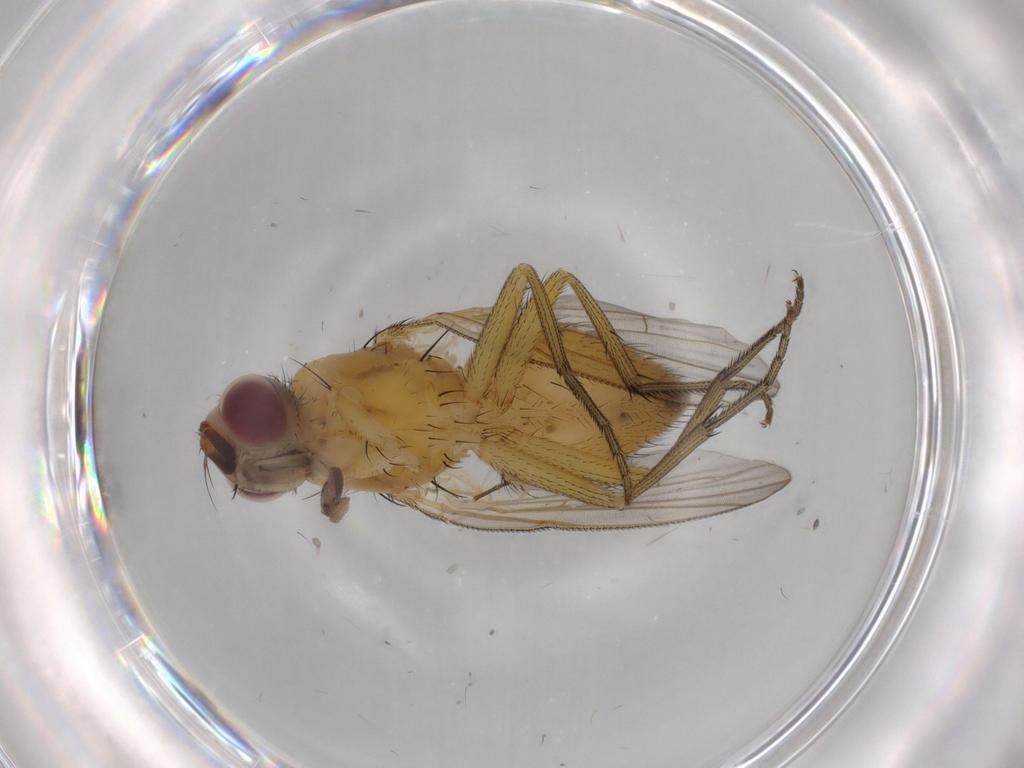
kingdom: Animalia
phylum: Arthropoda
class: Insecta
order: Diptera
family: Muscidae
